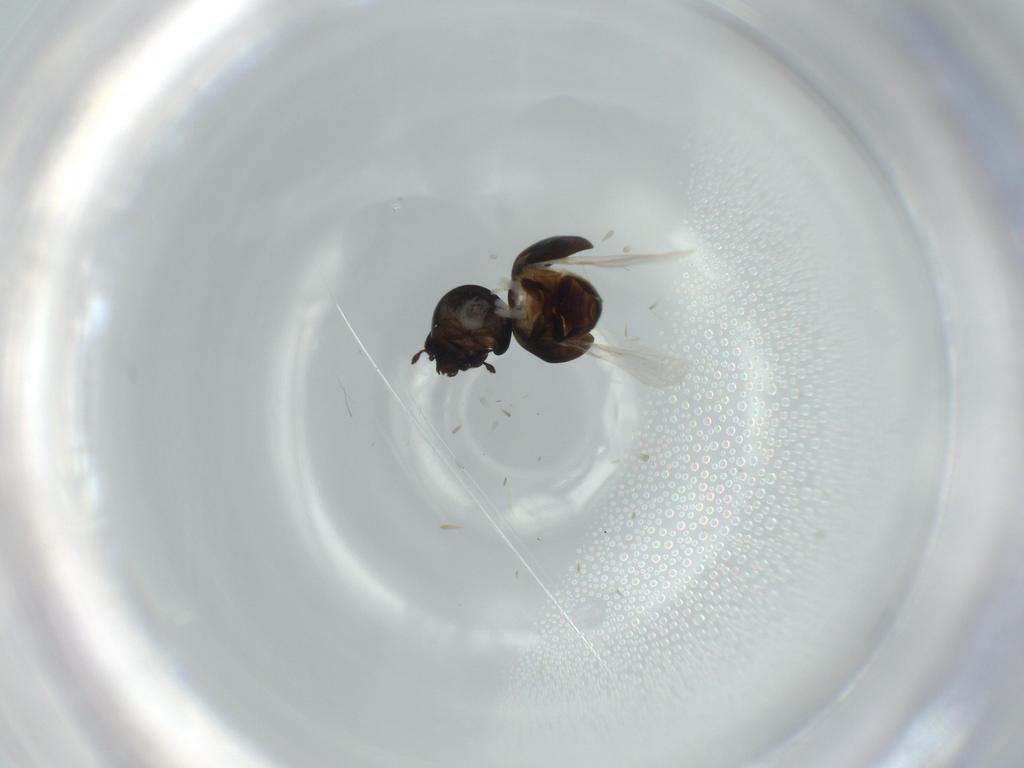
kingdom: Animalia
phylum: Arthropoda
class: Insecta
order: Coleoptera
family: Cybocephalidae
